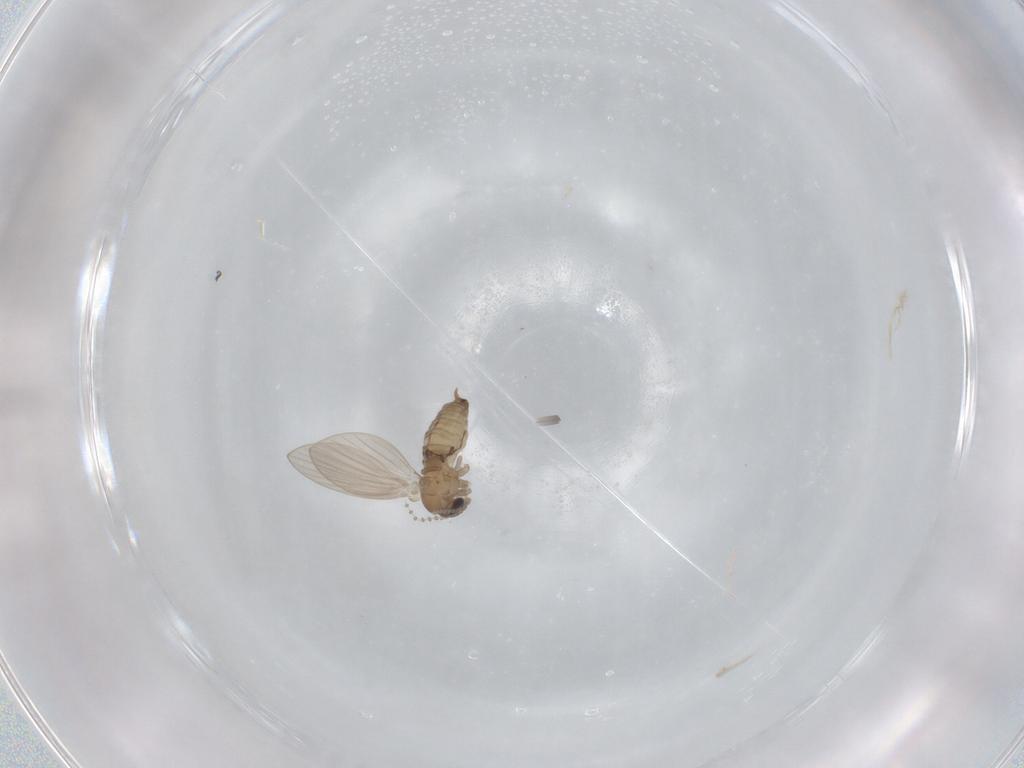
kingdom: Animalia
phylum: Arthropoda
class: Insecta
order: Diptera
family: Psychodidae
